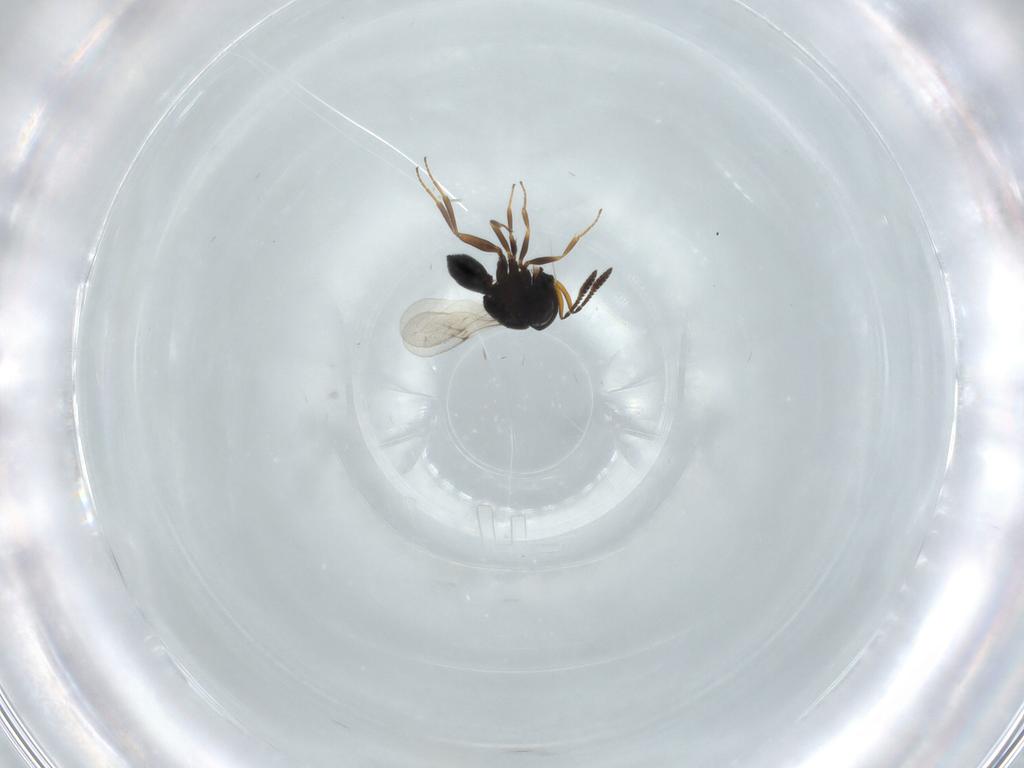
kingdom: Animalia
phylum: Arthropoda
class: Insecta
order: Hymenoptera
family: Scelionidae
